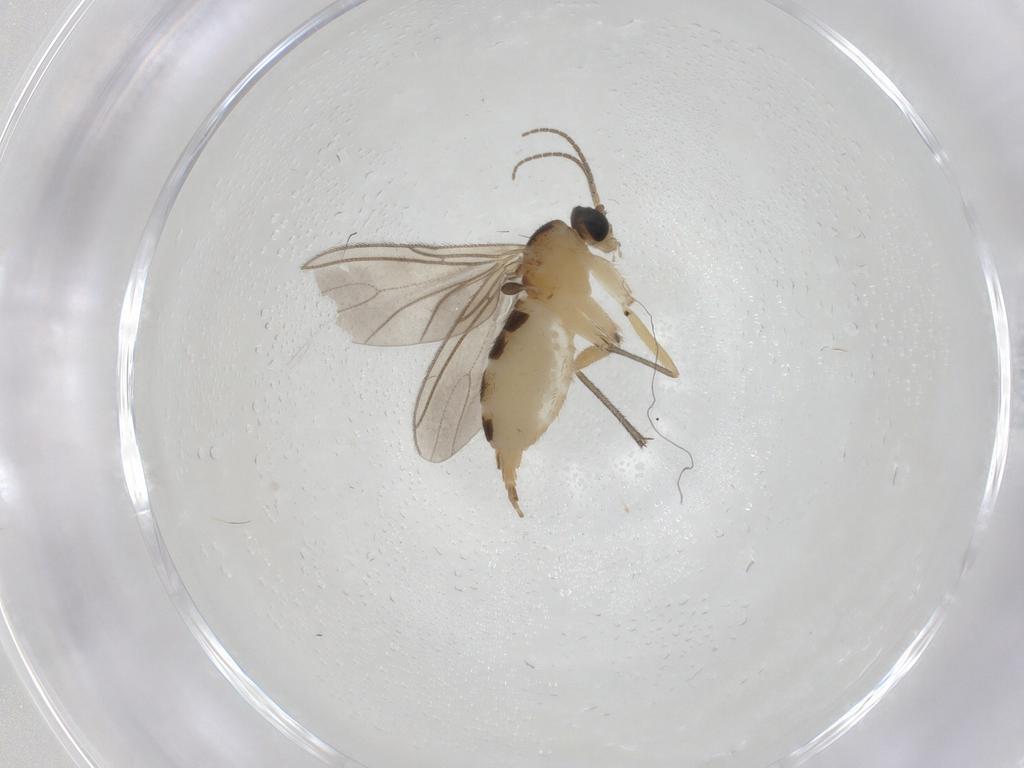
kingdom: Animalia
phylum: Arthropoda
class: Insecta
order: Diptera
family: Sciaridae
